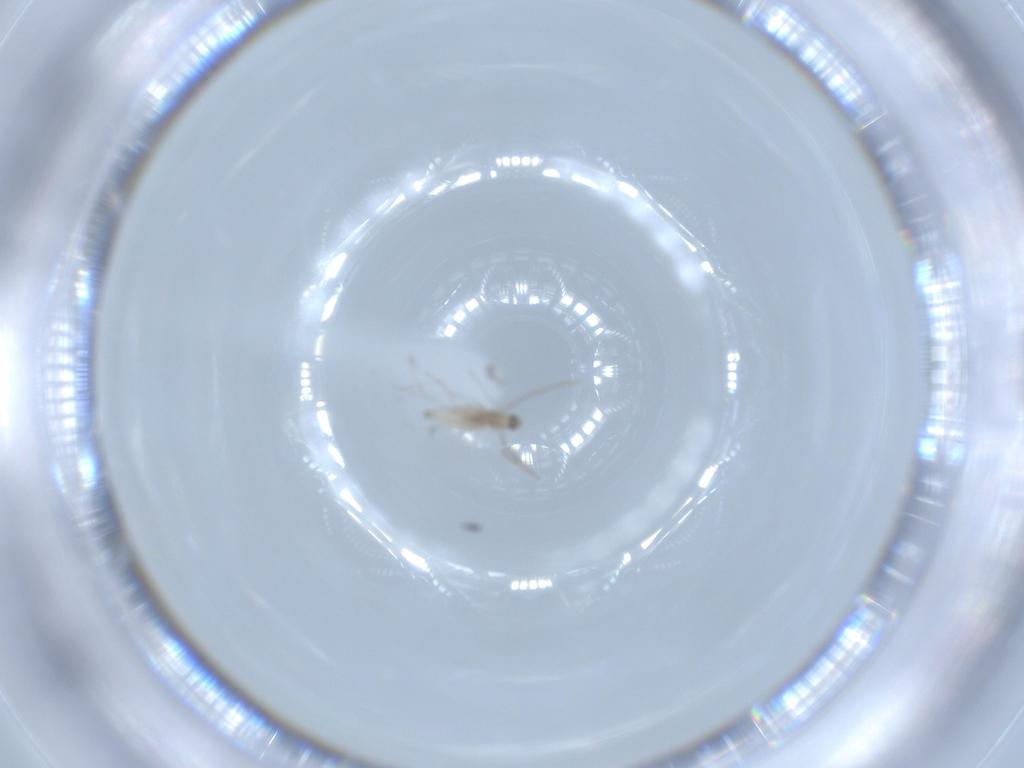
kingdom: Animalia
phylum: Arthropoda
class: Insecta
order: Diptera
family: Cecidomyiidae
